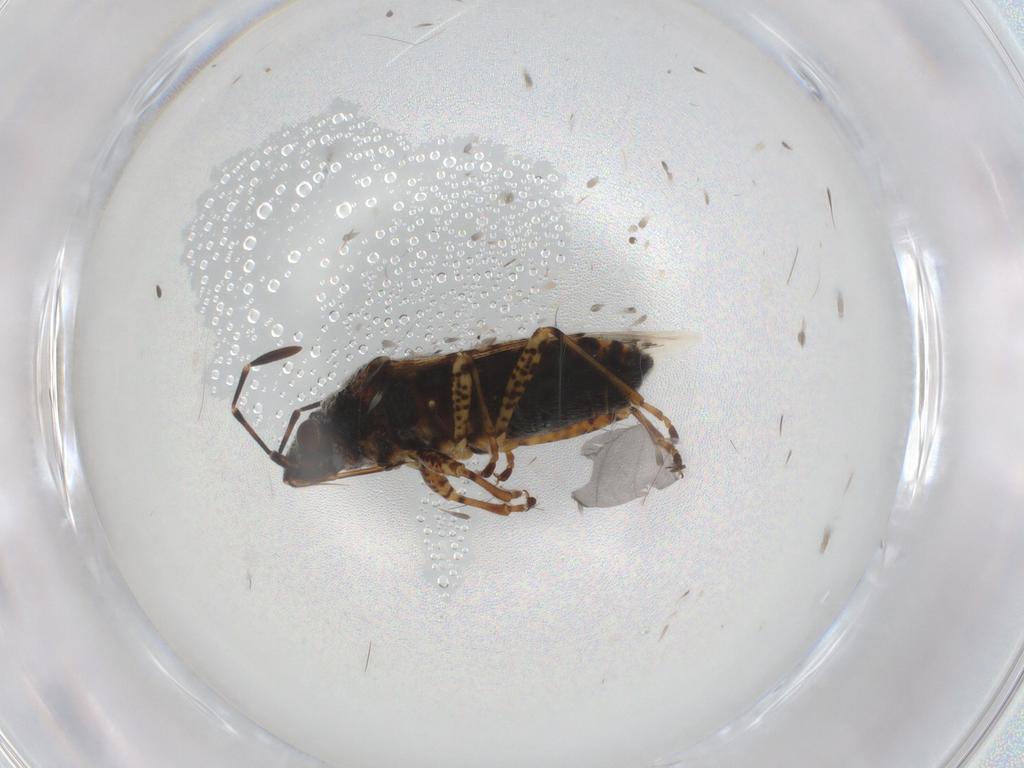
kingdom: Animalia
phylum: Arthropoda
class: Insecta
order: Hemiptera
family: Lygaeidae
